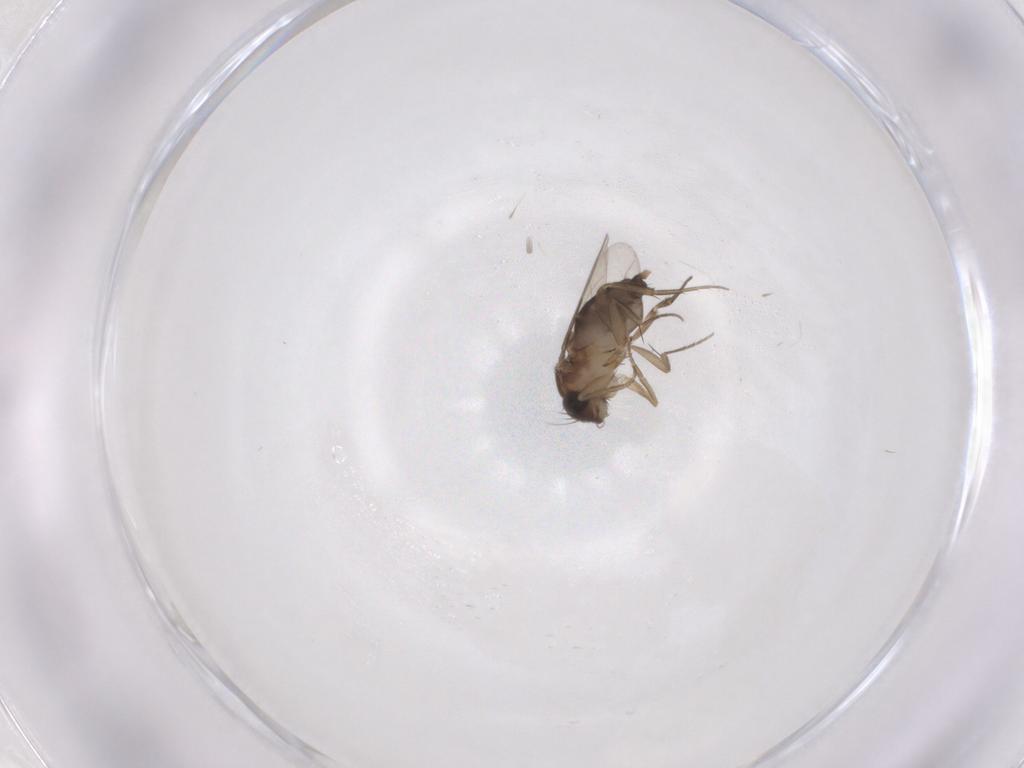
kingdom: Animalia
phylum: Arthropoda
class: Insecta
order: Diptera
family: Phoridae
